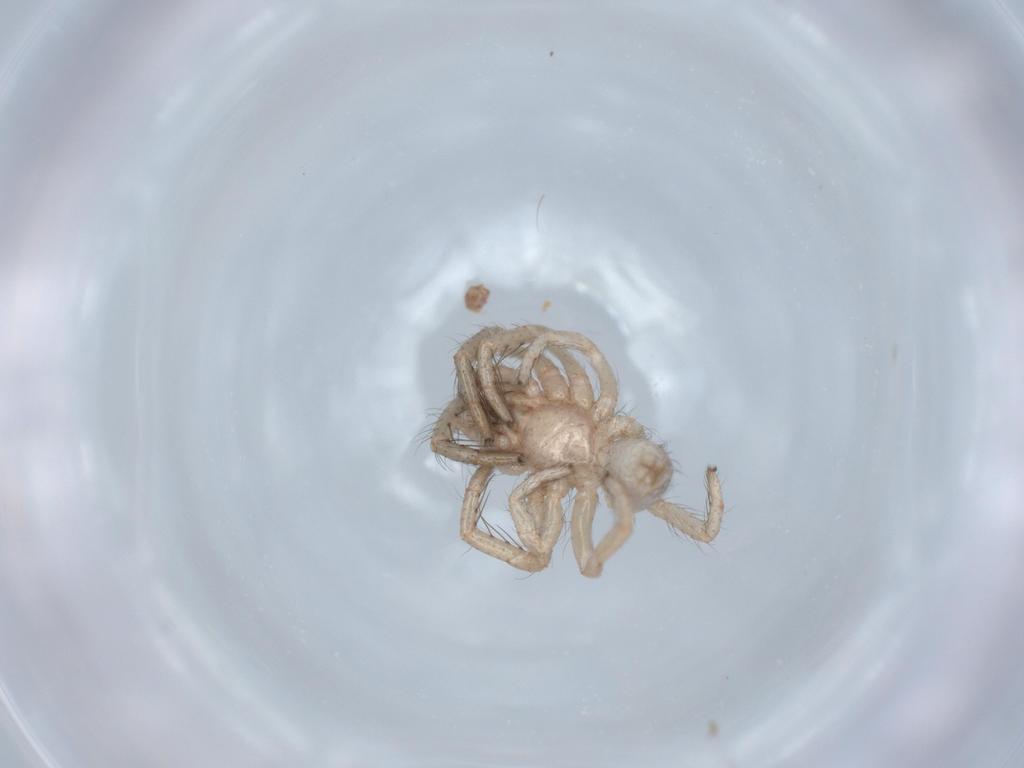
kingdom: Animalia
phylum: Arthropoda
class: Arachnida
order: Araneae
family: Segestriidae
